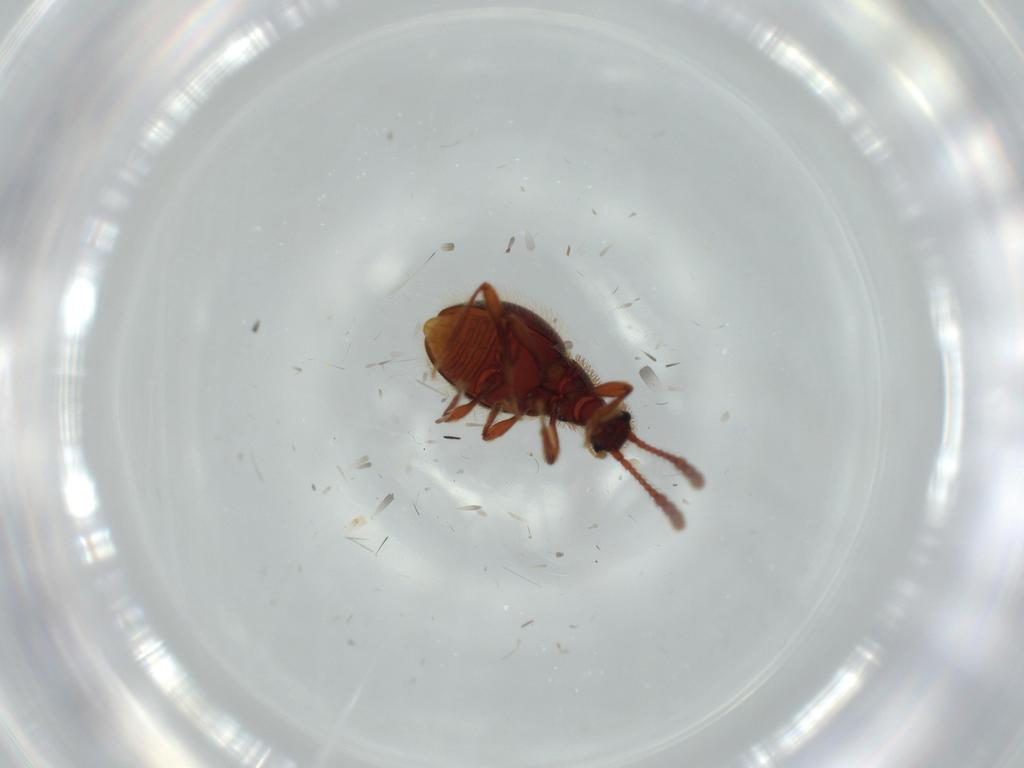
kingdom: Animalia
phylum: Arthropoda
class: Insecta
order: Coleoptera
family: Staphylinidae
